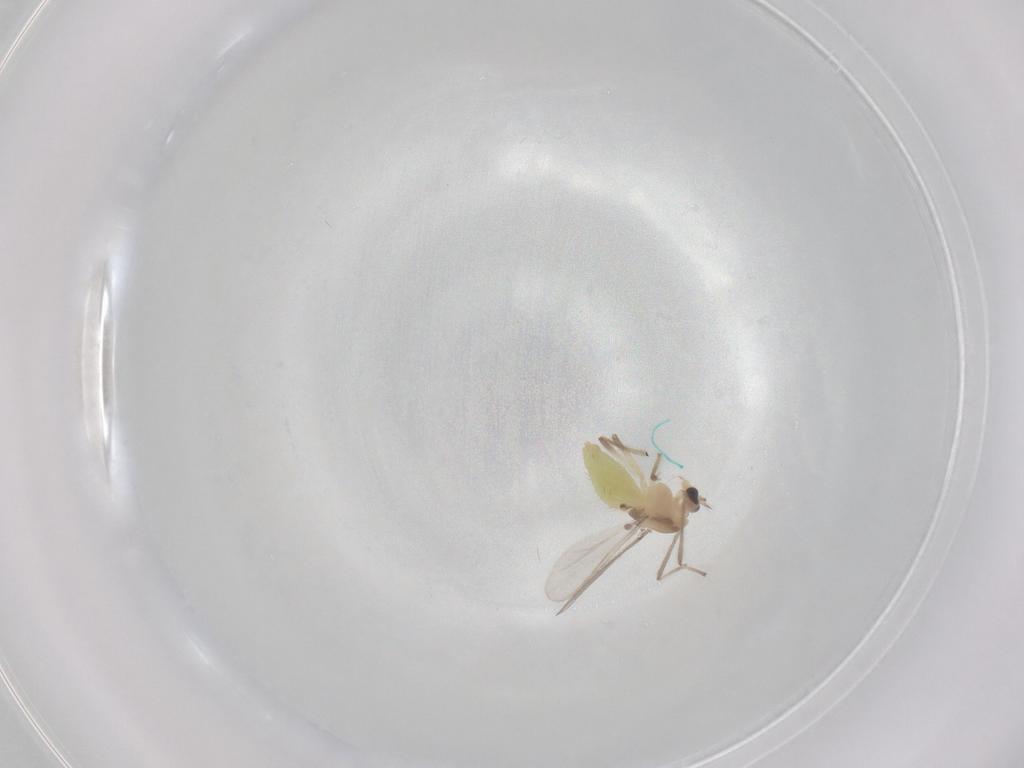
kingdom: Animalia
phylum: Arthropoda
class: Insecta
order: Diptera
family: Chironomidae
